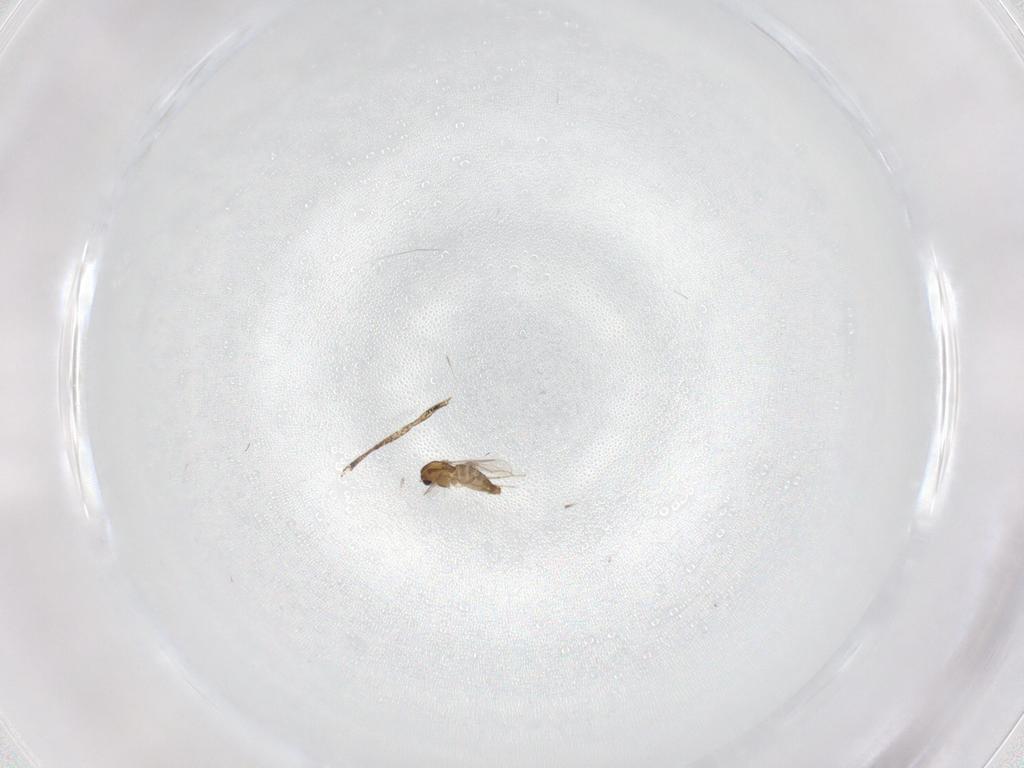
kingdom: Animalia
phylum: Arthropoda
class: Insecta
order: Diptera
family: Chironomidae
